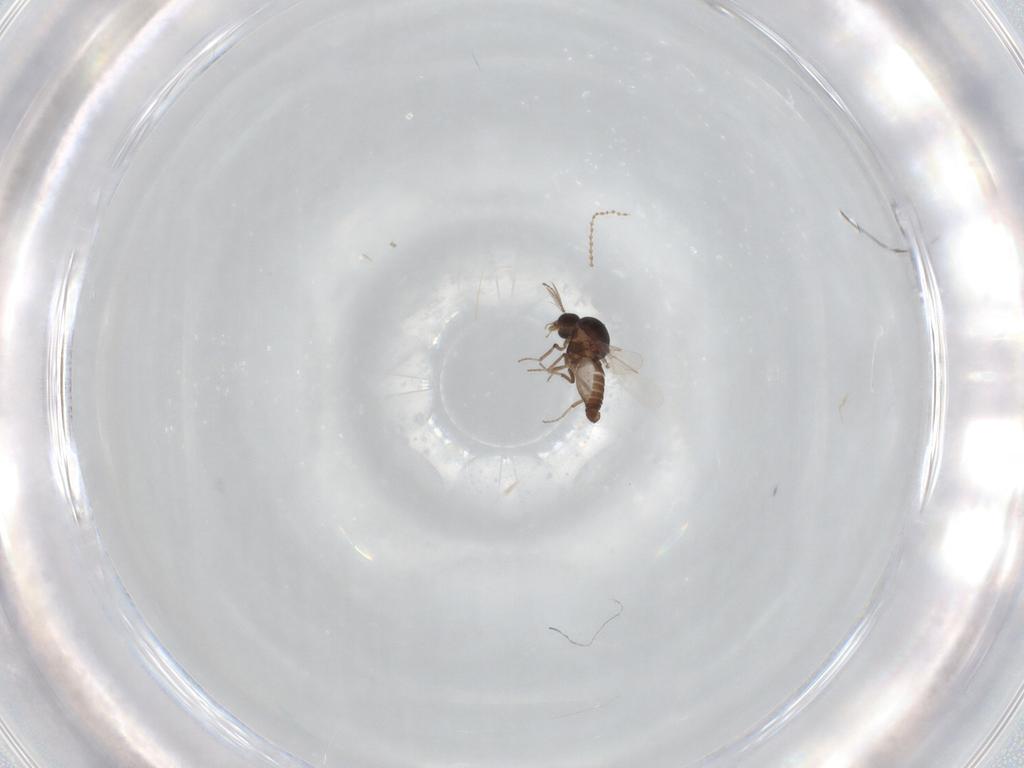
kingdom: Animalia
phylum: Arthropoda
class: Insecta
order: Diptera
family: Ceratopogonidae
